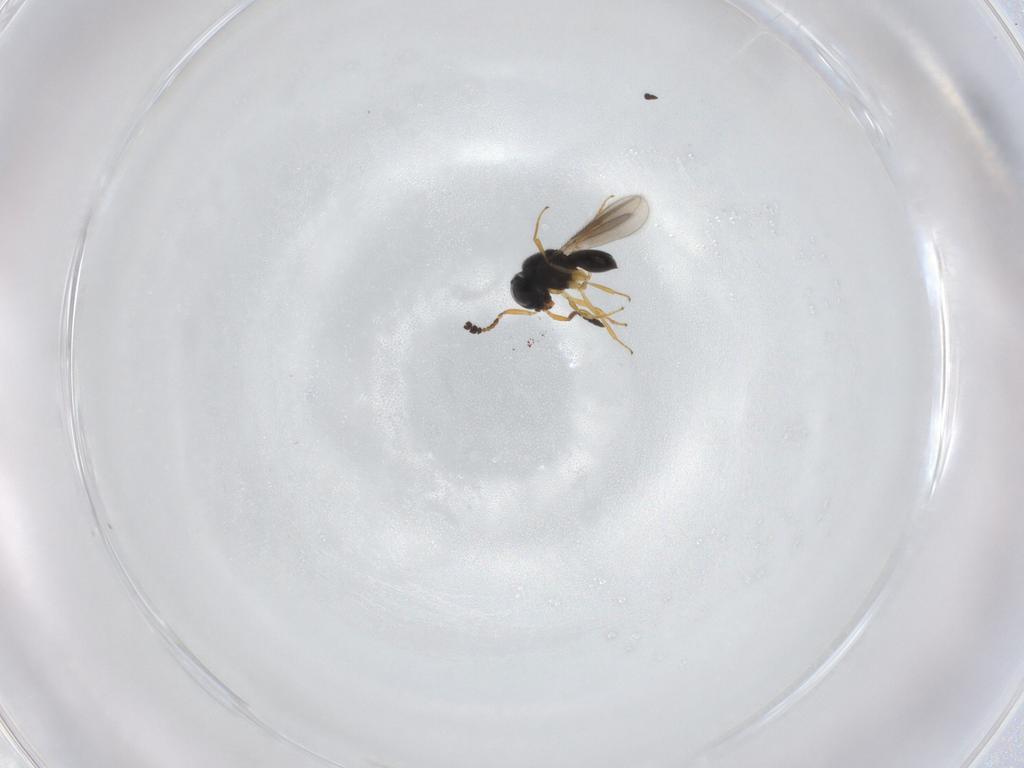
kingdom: Animalia
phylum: Arthropoda
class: Insecta
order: Hymenoptera
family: Scelionidae
